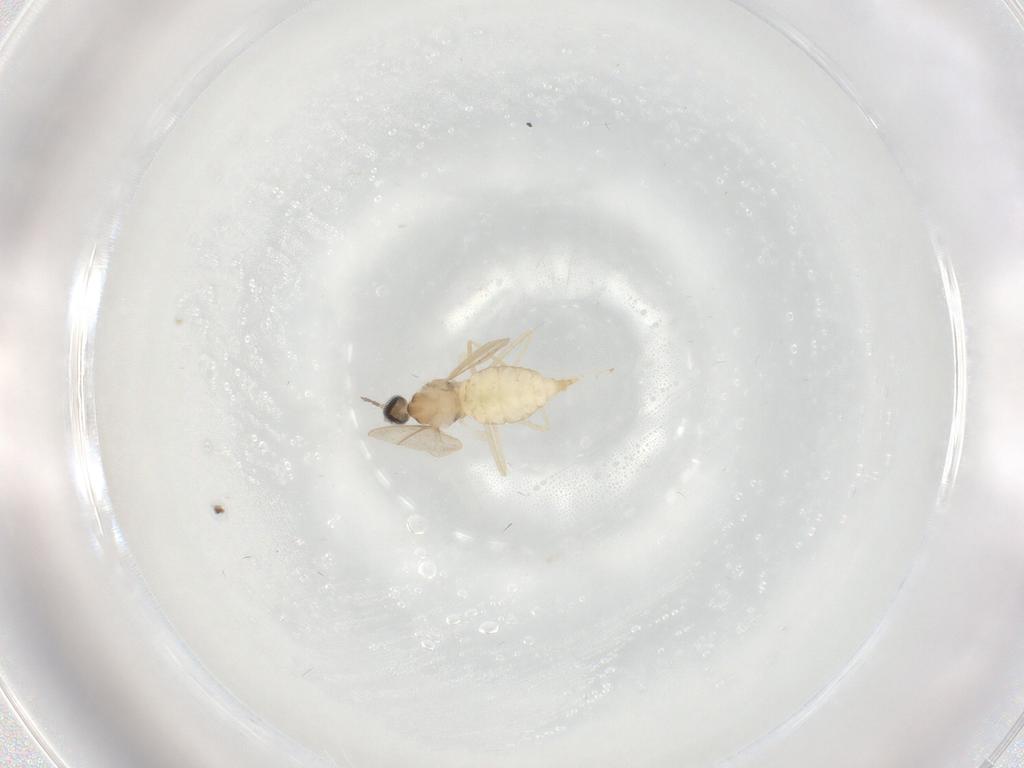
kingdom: Animalia
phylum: Arthropoda
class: Insecta
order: Diptera
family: Cecidomyiidae
